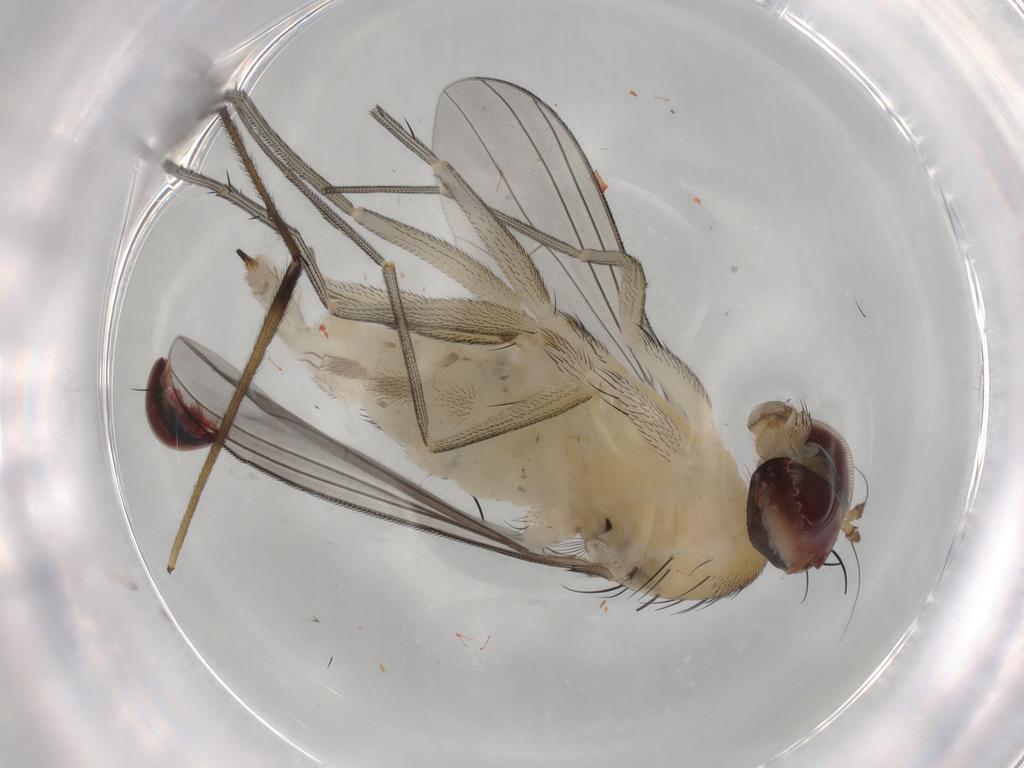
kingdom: Animalia
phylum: Arthropoda
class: Insecta
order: Diptera
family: Dolichopodidae
